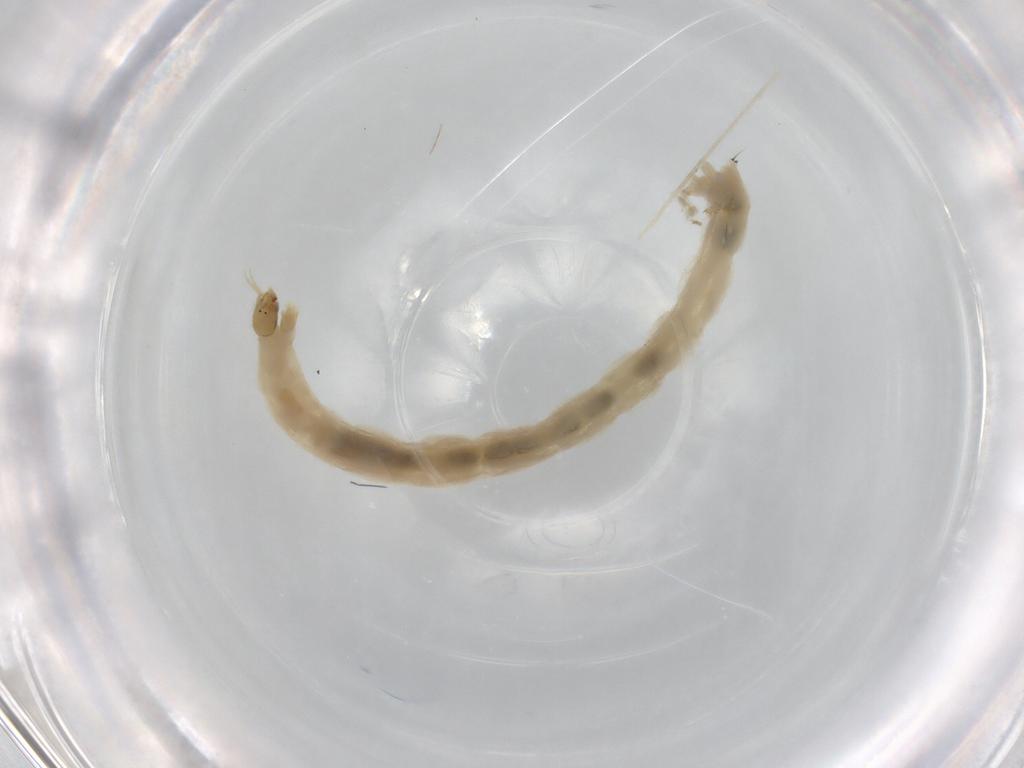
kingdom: Animalia
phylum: Arthropoda
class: Insecta
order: Diptera
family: Chironomidae
